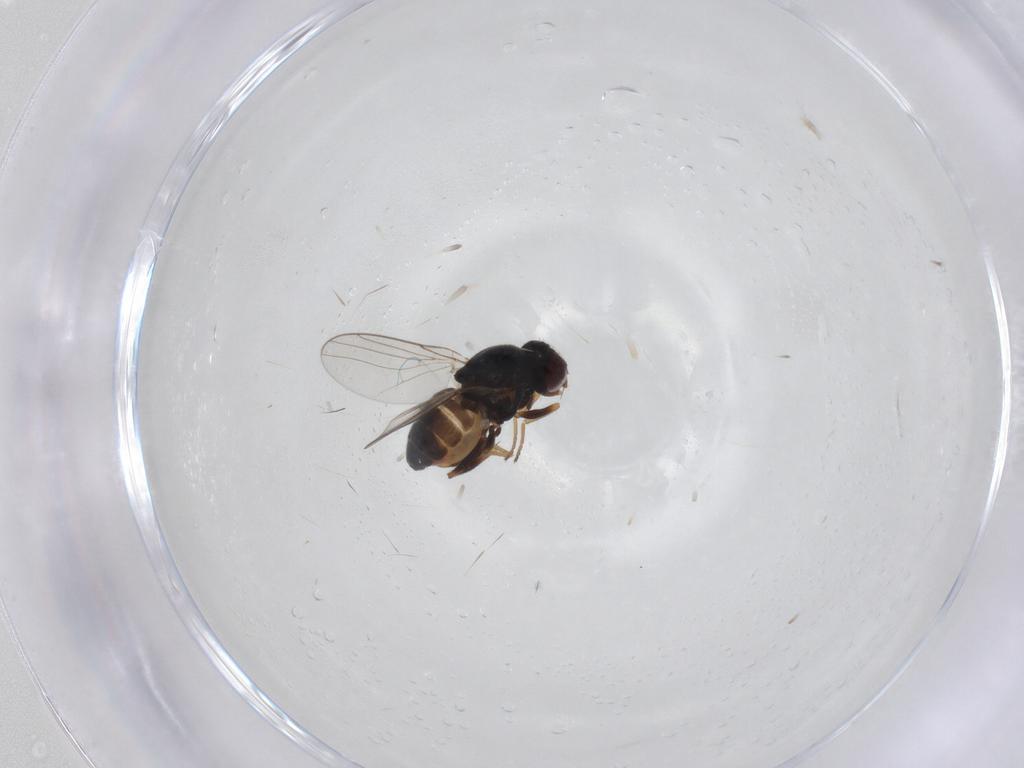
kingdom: Animalia
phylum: Arthropoda
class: Insecta
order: Diptera
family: Chloropidae
